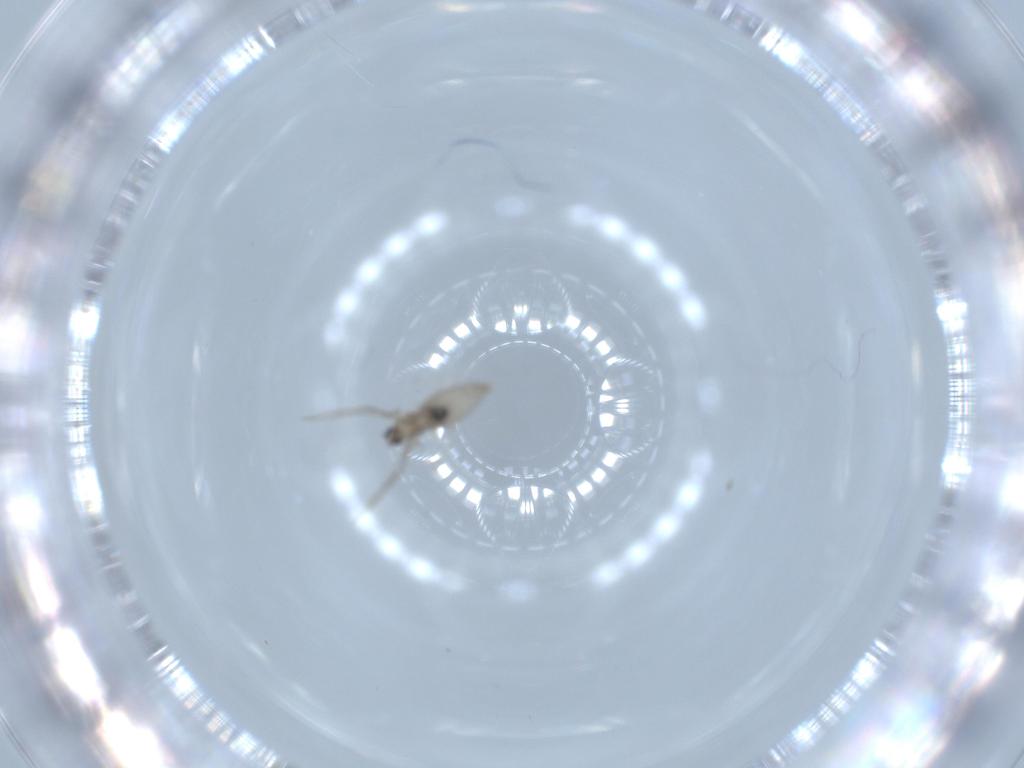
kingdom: Animalia
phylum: Arthropoda
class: Insecta
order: Diptera
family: Cecidomyiidae
